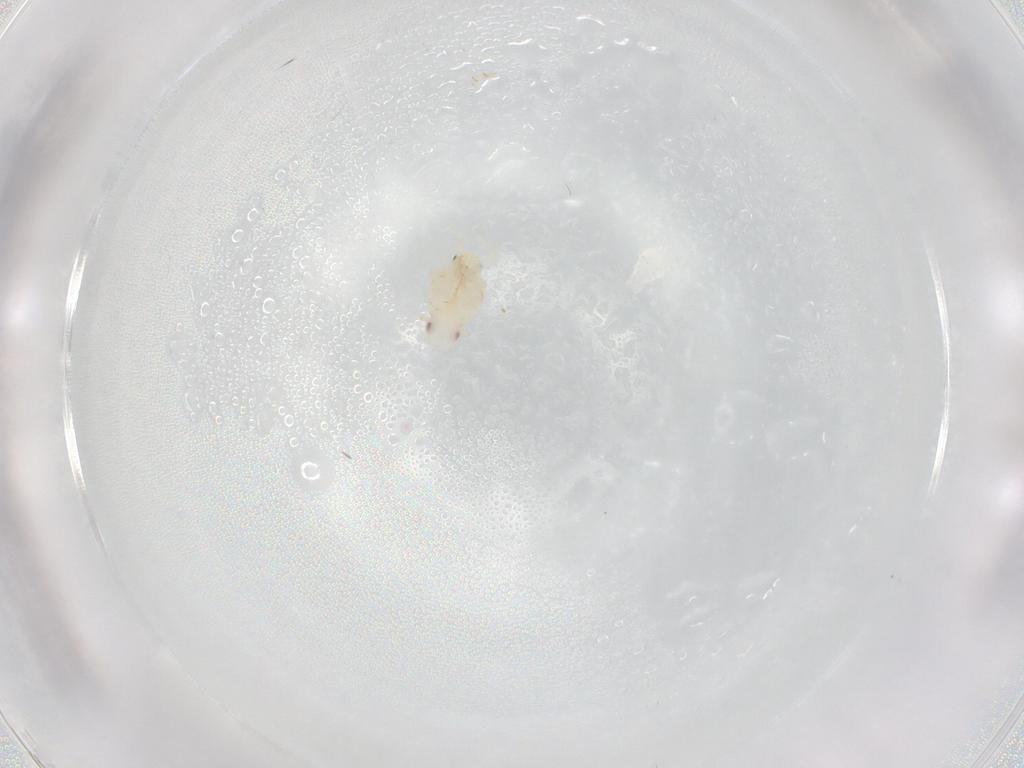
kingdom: Animalia
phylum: Arthropoda
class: Insecta
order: Hemiptera
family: Flatidae
